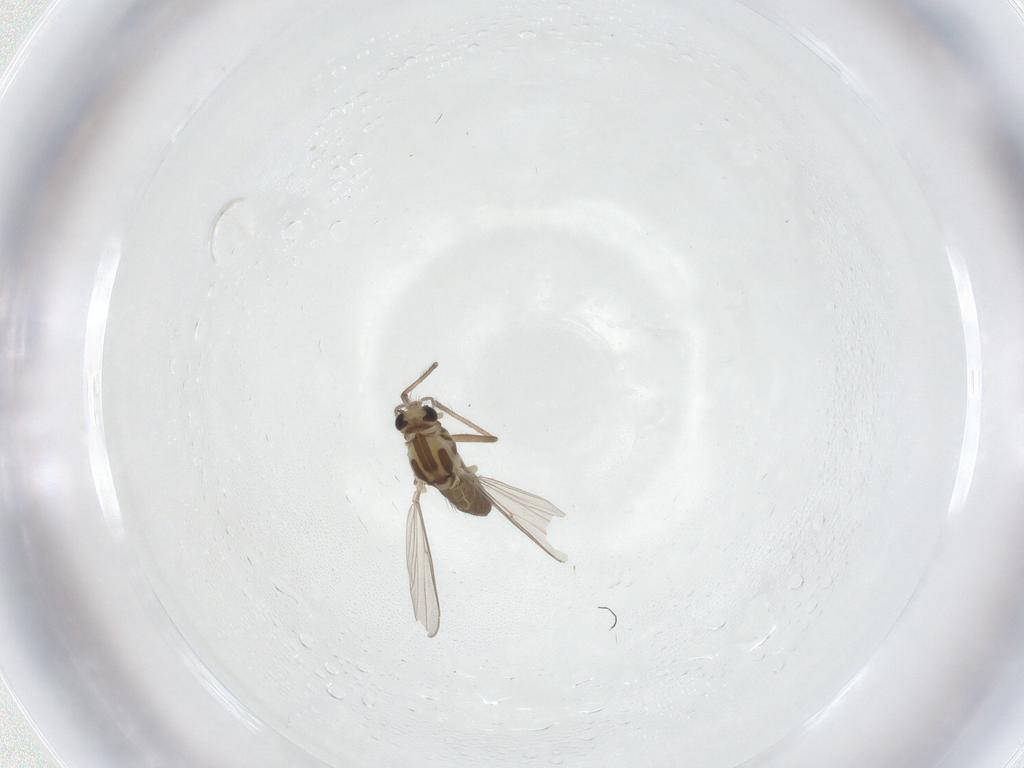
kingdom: Animalia
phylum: Arthropoda
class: Insecta
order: Diptera
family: Chironomidae
